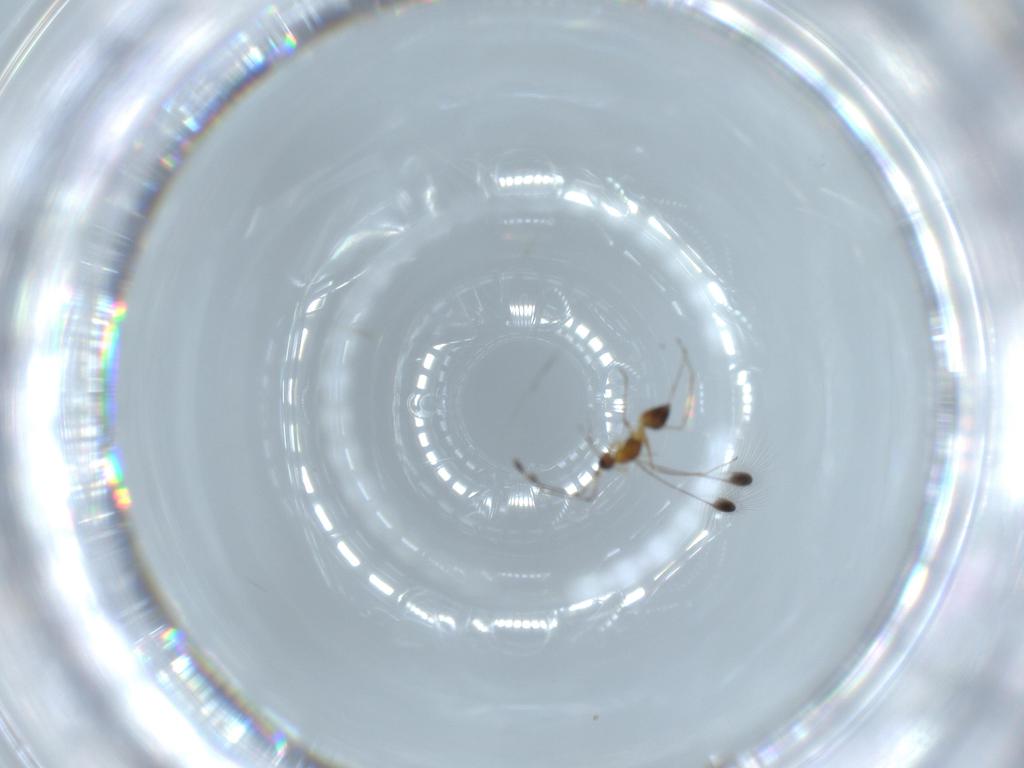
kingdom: Animalia
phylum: Arthropoda
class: Insecta
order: Hymenoptera
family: Diapriidae
